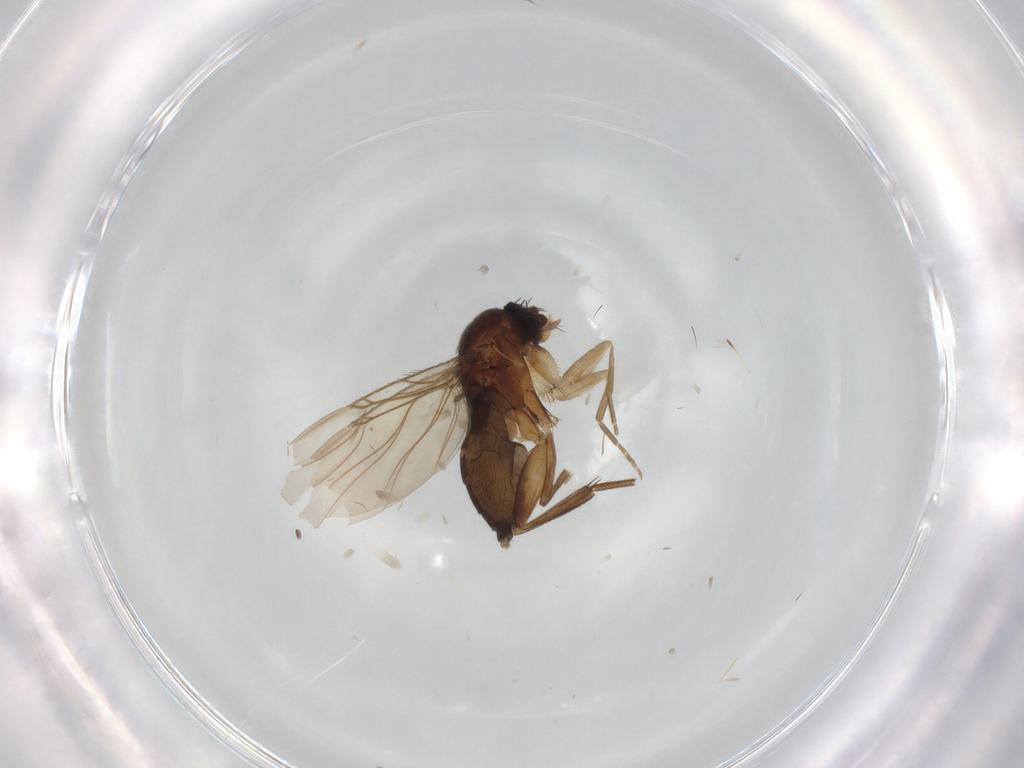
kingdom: Animalia
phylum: Arthropoda
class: Insecta
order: Diptera
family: Phoridae
